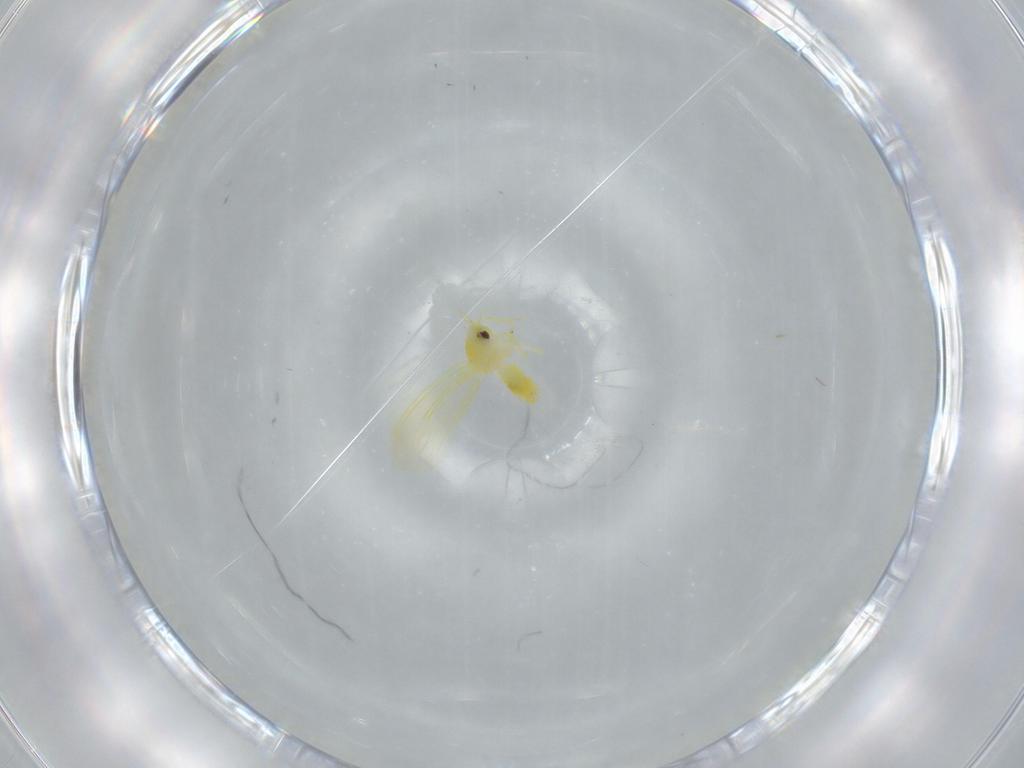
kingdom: Animalia
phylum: Arthropoda
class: Insecta
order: Hemiptera
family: Aleyrodidae
